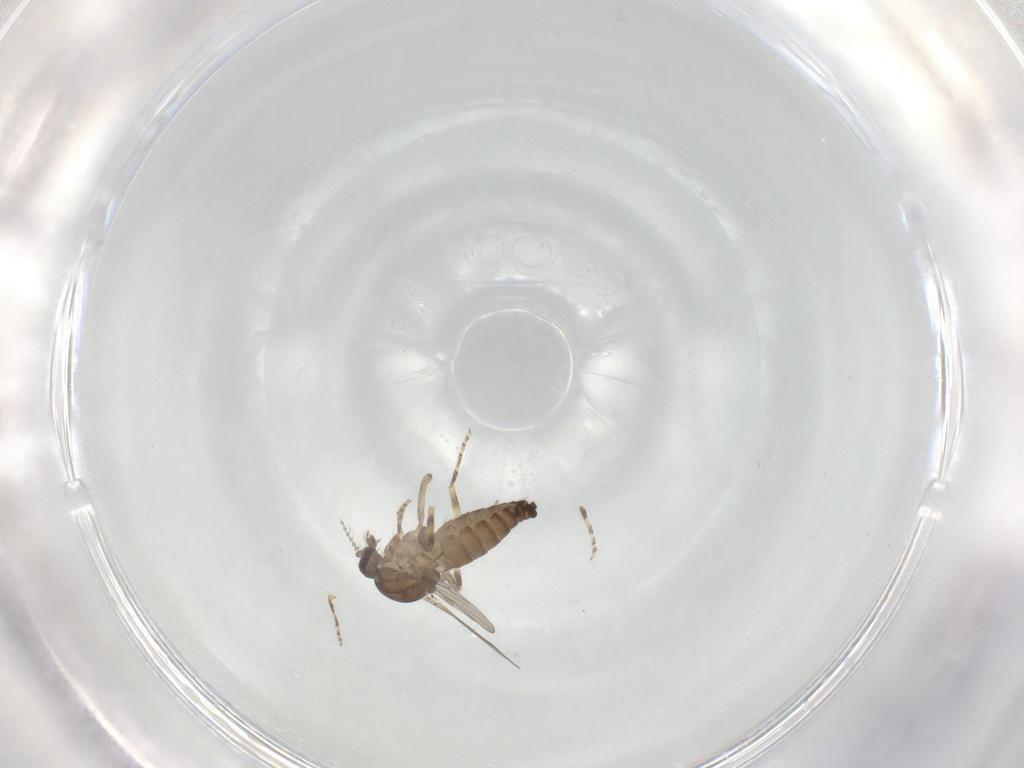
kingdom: Animalia
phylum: Arthropoda
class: Insecta
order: Diptera
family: Ceratopogonidae
